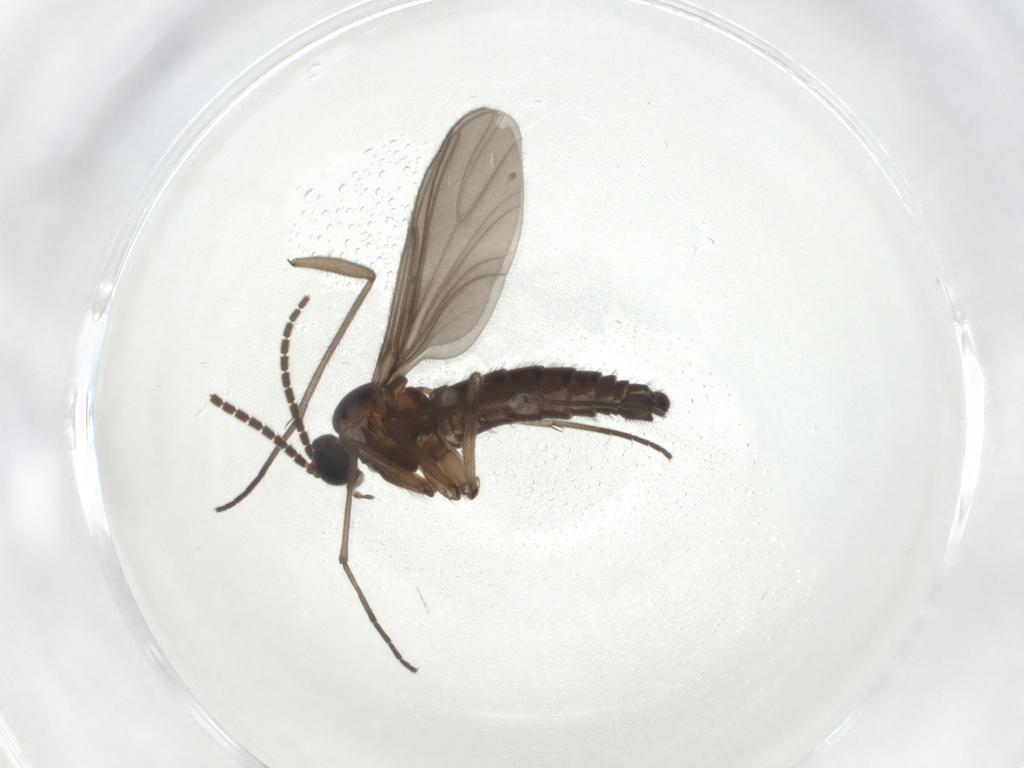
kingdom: Animalia
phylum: Arthropoda
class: Insecta
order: Diptera
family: Sciaridae
